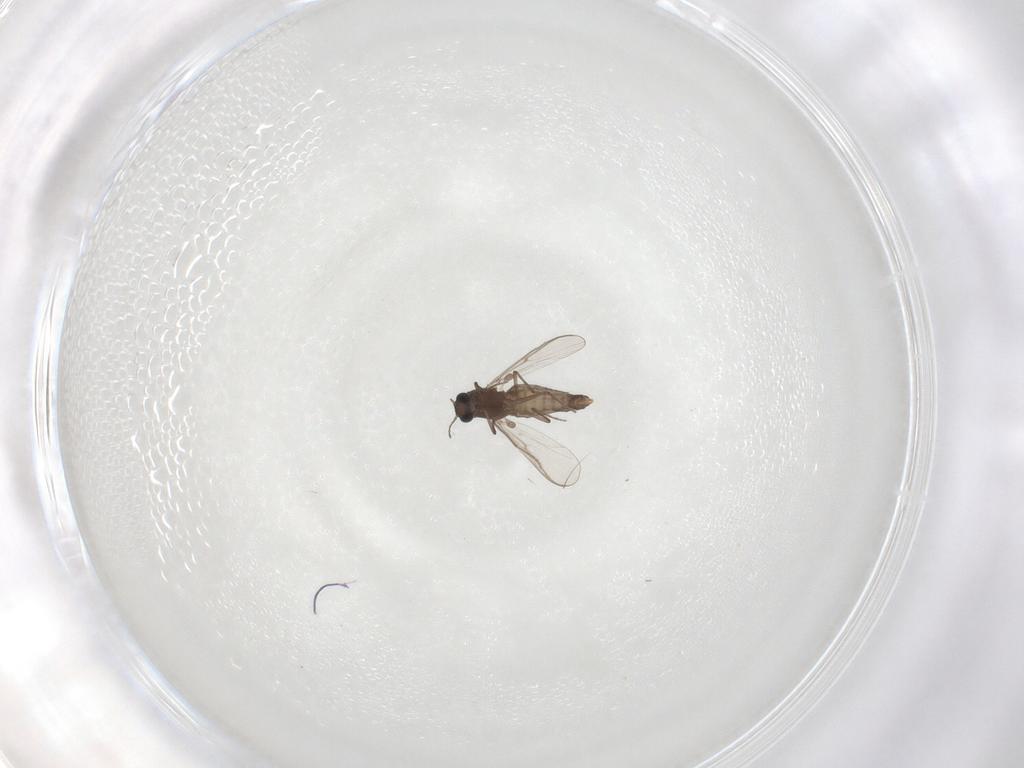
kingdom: Animalia
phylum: Arthropoda
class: Insecta
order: Diptera
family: Chironomidae
